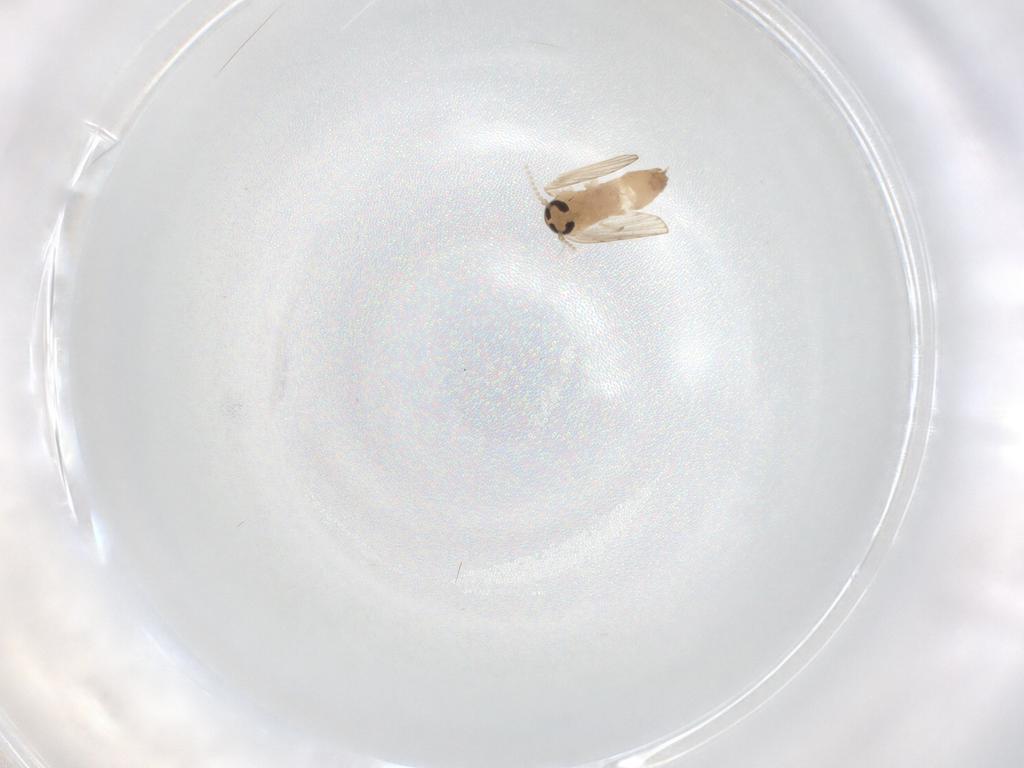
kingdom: Animalia
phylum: Arthropoda
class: Insecta
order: Diptera
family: Psychodidae
